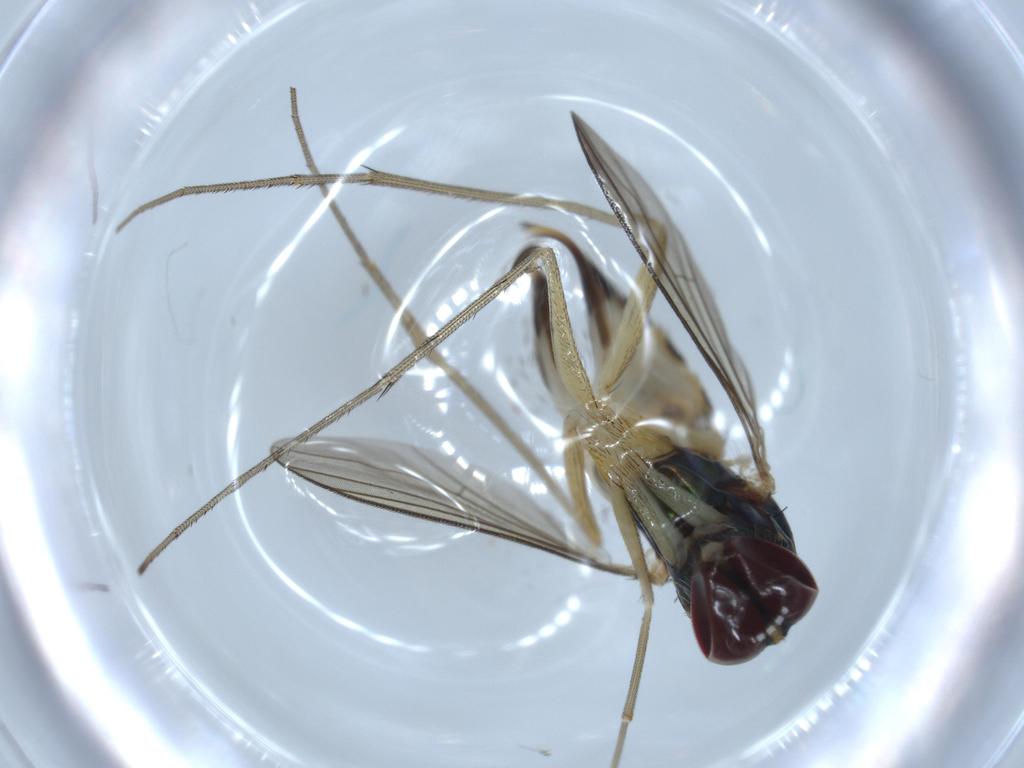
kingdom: Animalia
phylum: Arthropoda
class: Insecta
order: Diptera
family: Dolichopodidae
